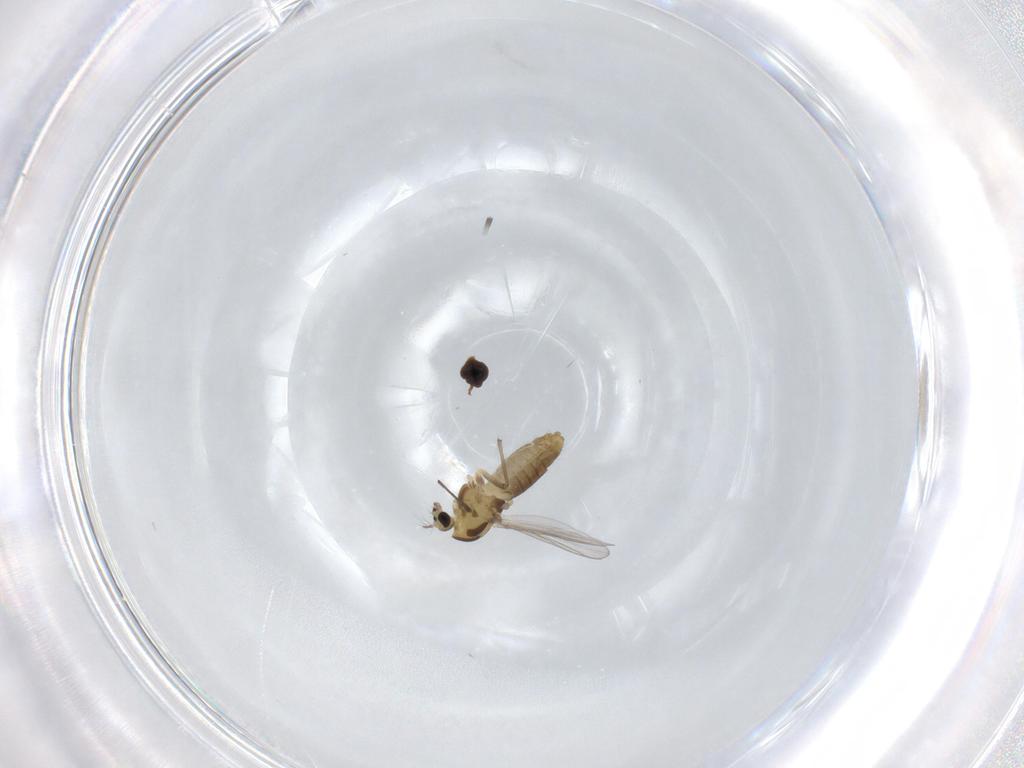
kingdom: Animalia
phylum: Arthropoda
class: Insecta
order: Diptera
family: Chironomidae
